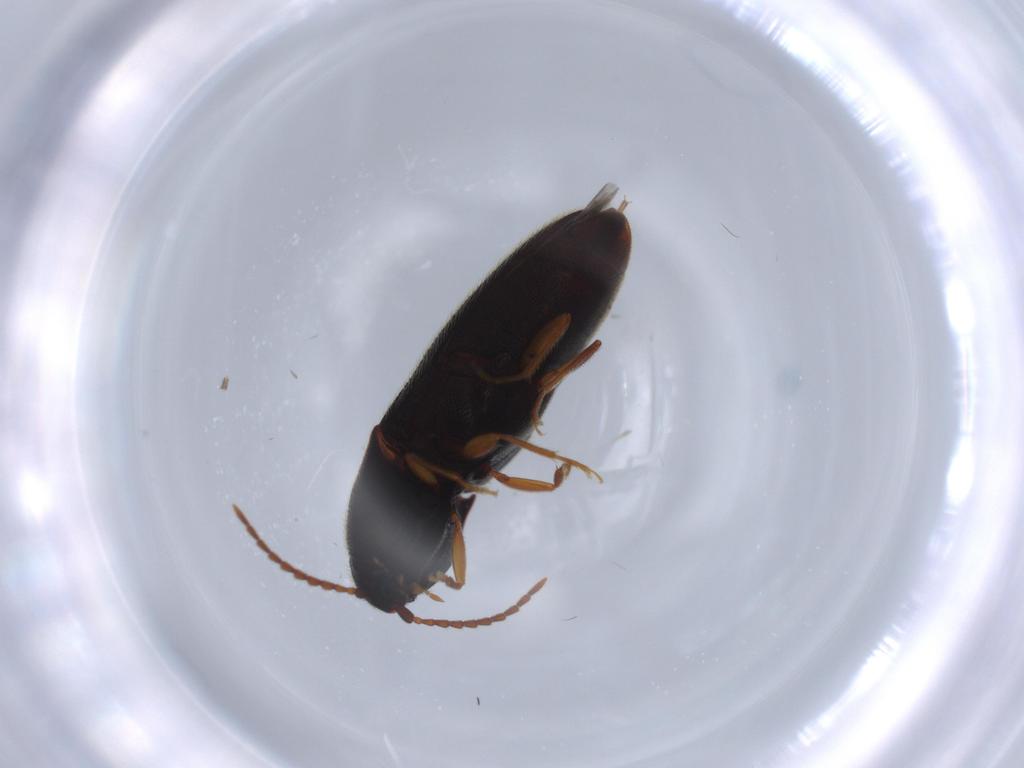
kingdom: Animalia
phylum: Arthropoda
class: Insecta
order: Coleoptera
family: Elateridae
